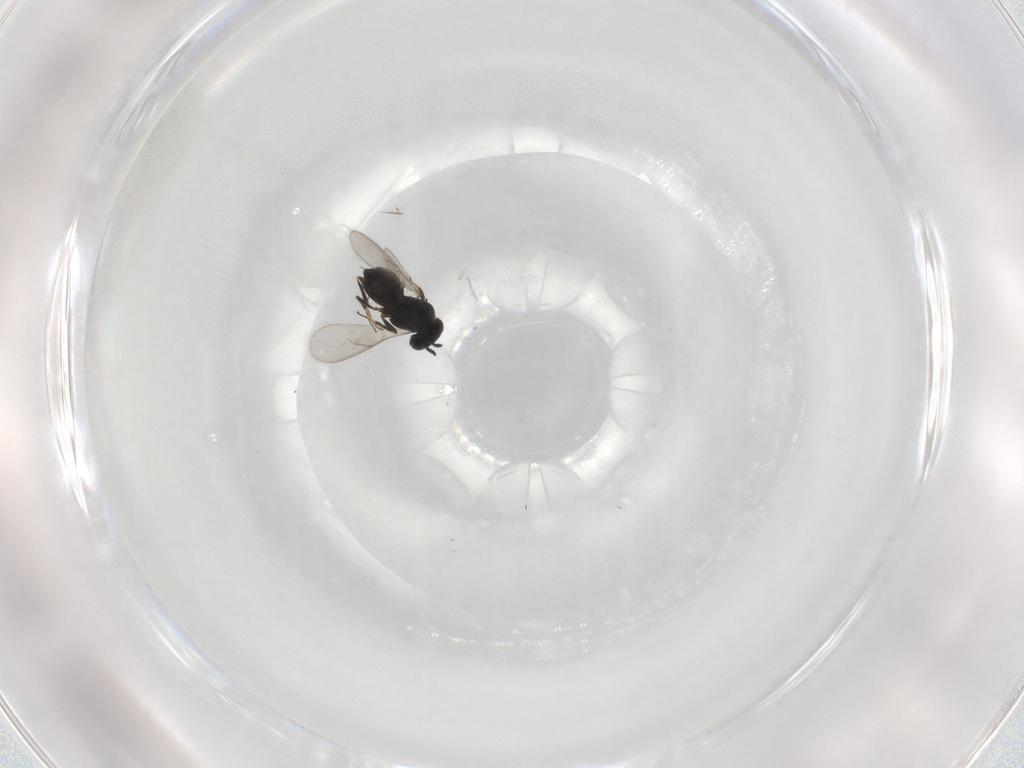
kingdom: Animalia
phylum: Arthropoda
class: Insecta
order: Hymenoptera
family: Scelionidae
